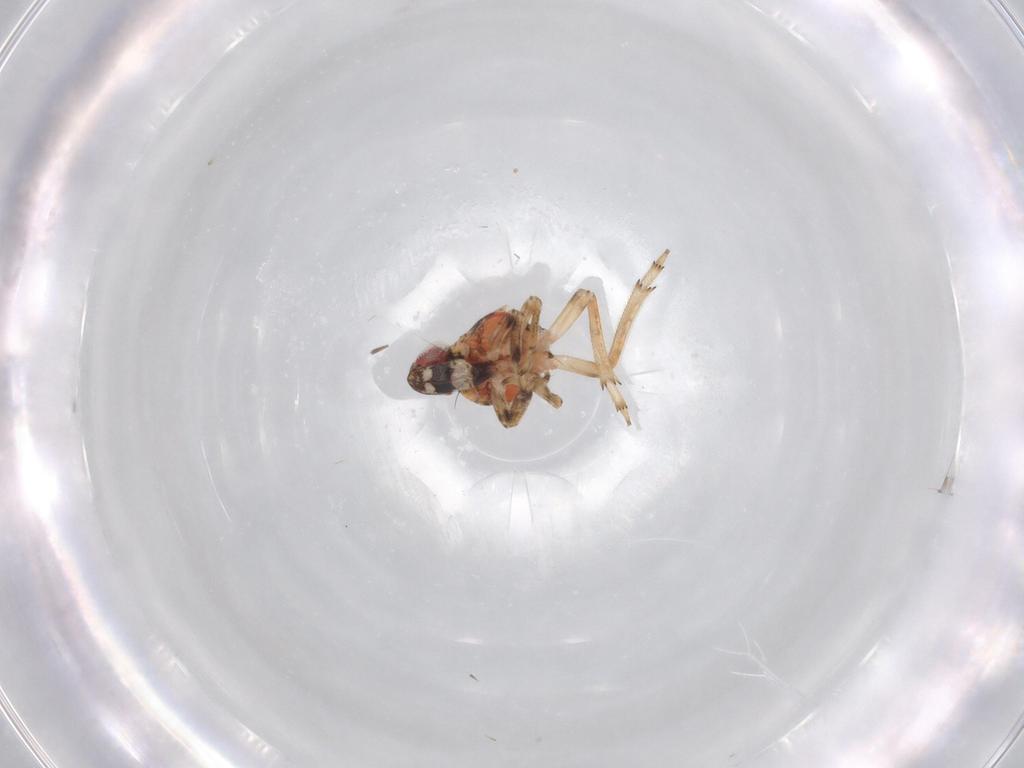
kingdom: Animalia
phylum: Arthropoda
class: Insecta
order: Hemiptera
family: Issidae
